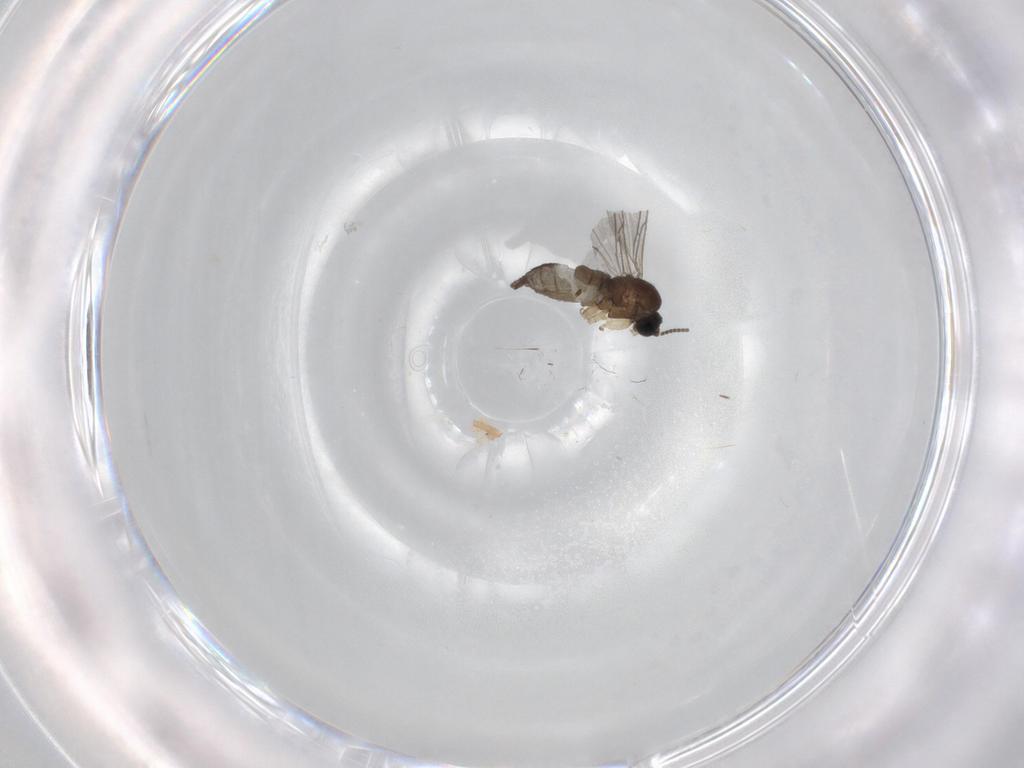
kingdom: Animalia
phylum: Arthropoda
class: Insecta
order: Diptera
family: Sciaridae
